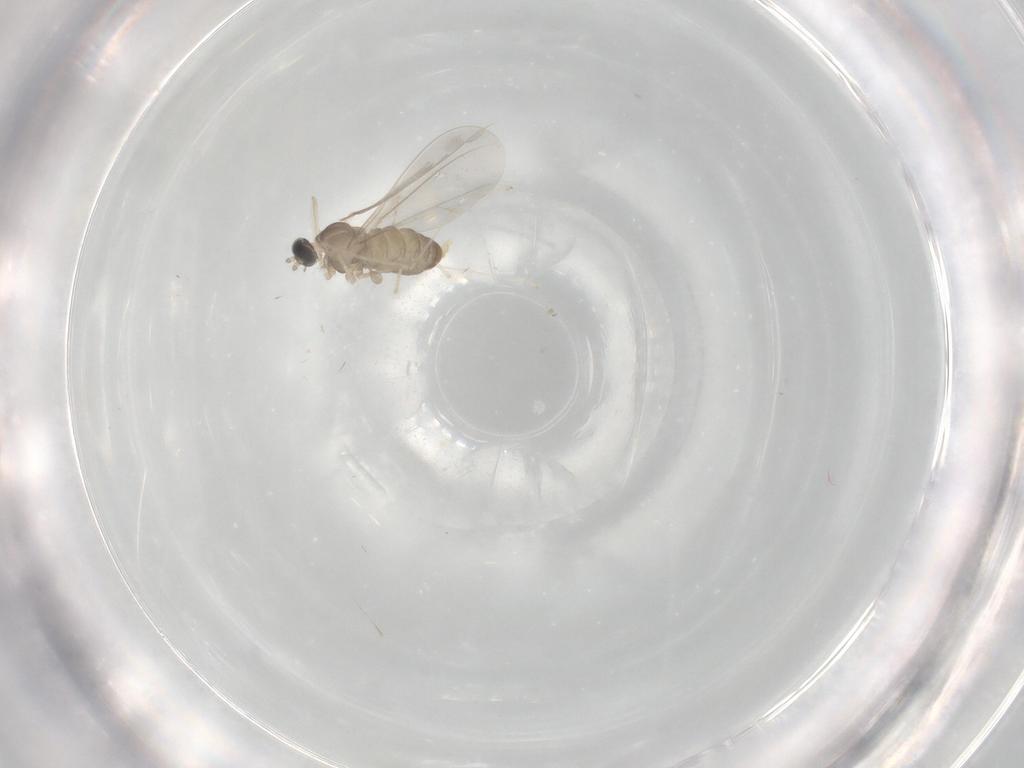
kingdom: Animalia
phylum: Arthropoda
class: Insecta
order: Diptera
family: Cecidomyiidae
